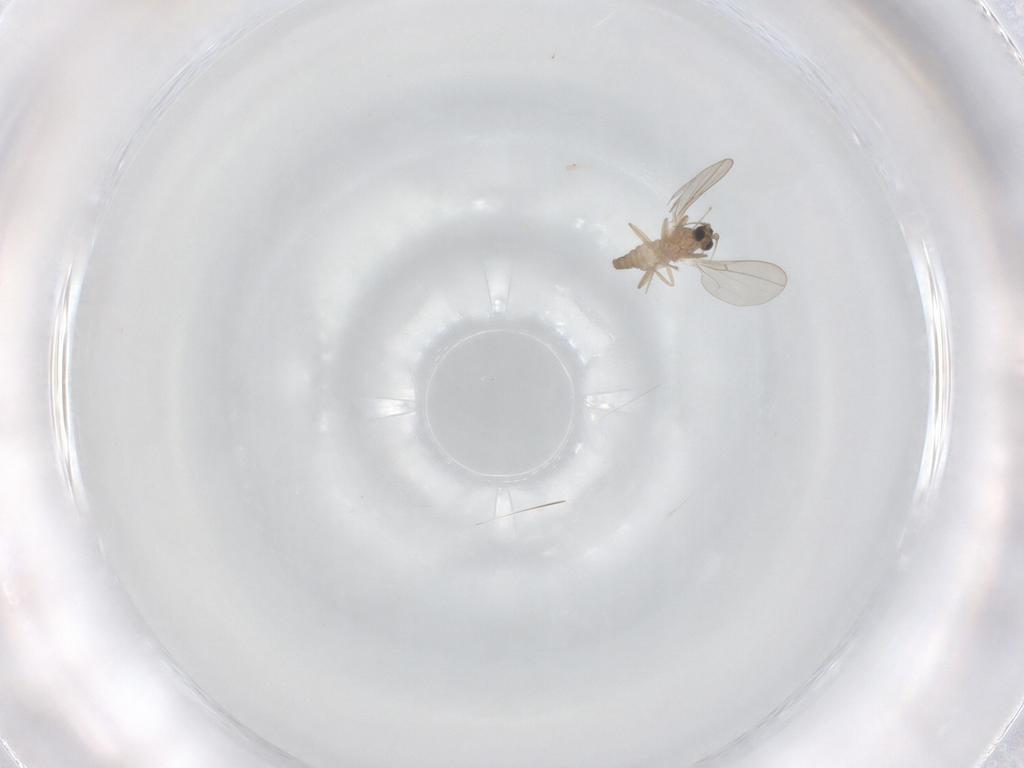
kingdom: Animalia
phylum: Arthropoda
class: Insecta
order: Diptera
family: Cecidomyiidae
